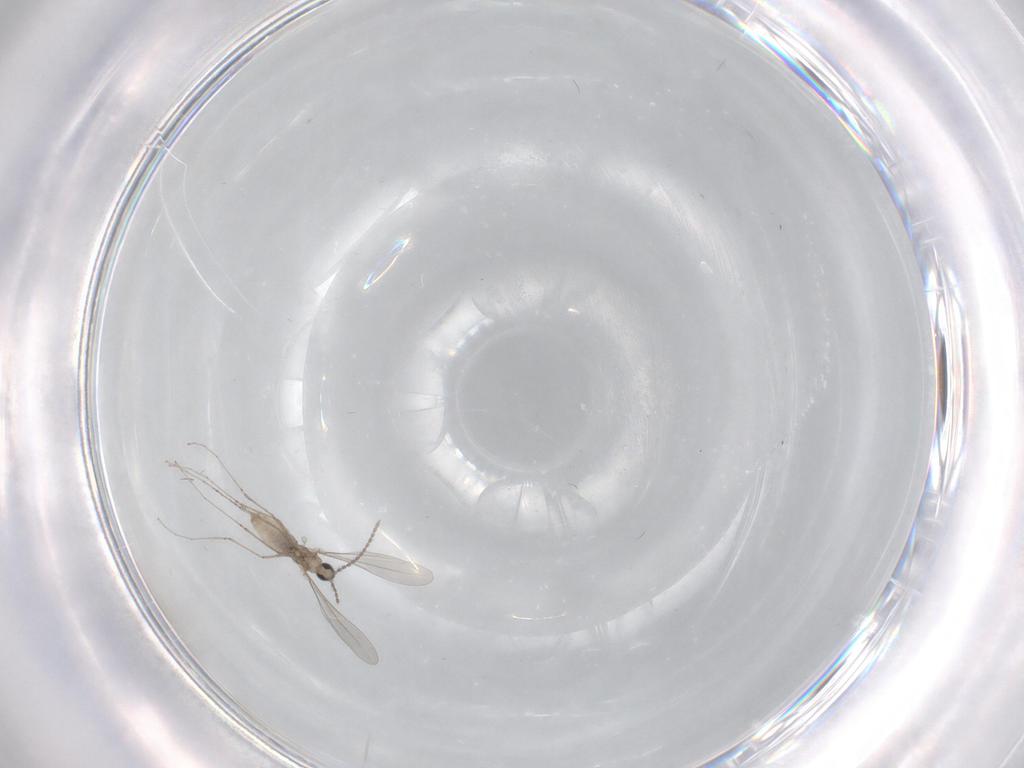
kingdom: Animalia
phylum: Arthropoda
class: Insecta
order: Diptera
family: Cecidomyiidae
